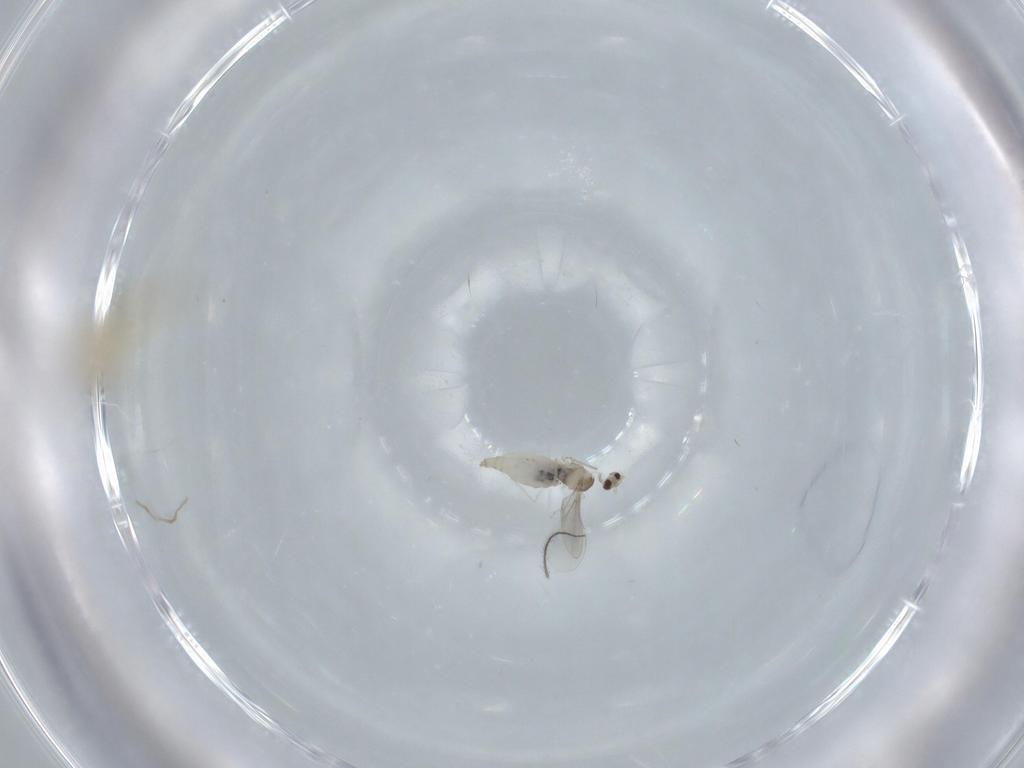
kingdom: Animalia
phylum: Arthropoda
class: Insecta
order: Diptera
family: Cecidomyiidae
